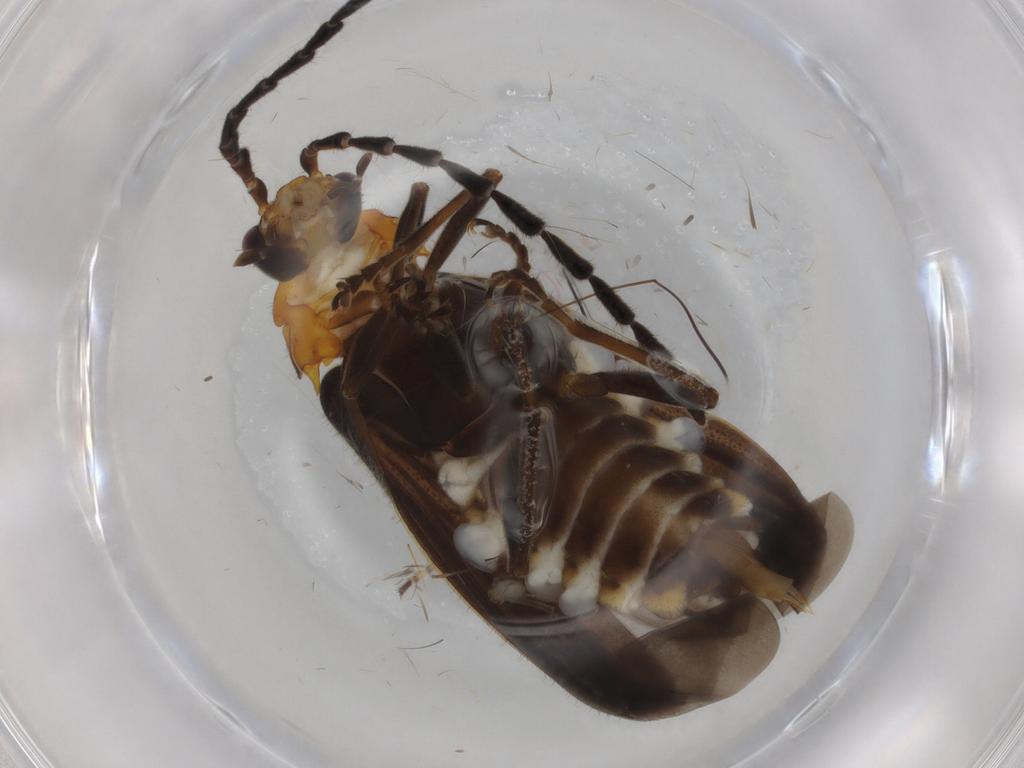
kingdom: Animalia
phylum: Arthropoda
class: Insecta
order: Coleoptera
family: Cantharidae
